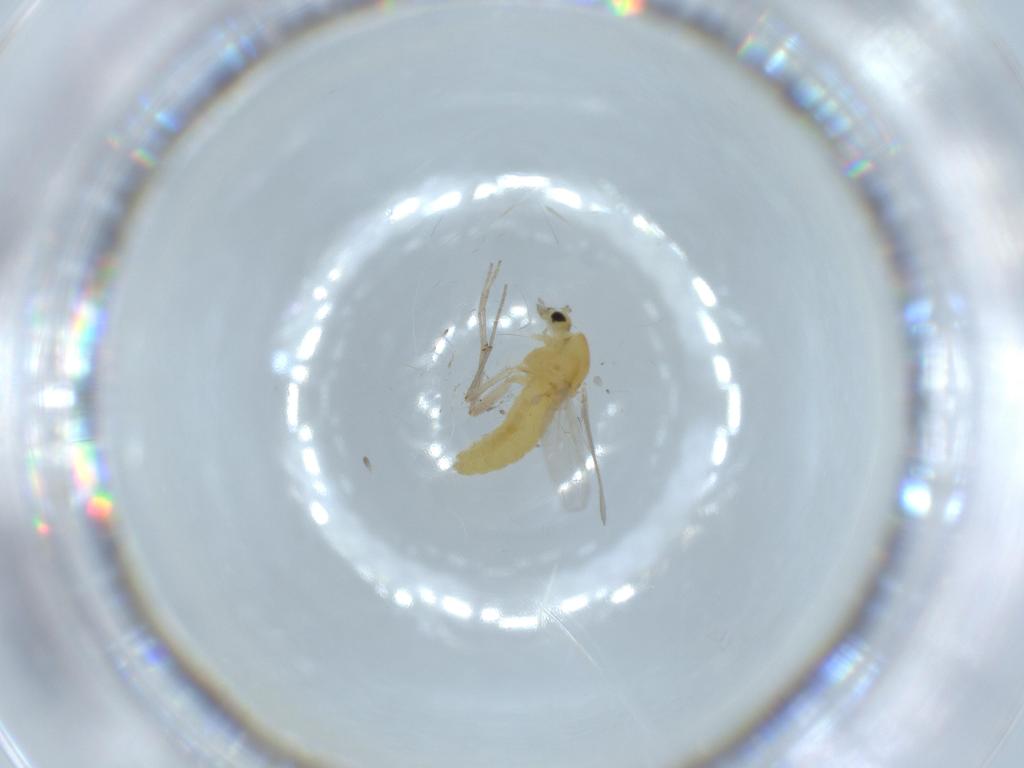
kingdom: Animalia
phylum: Arthropoda
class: Insecta
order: Diptera
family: Chironomidae
